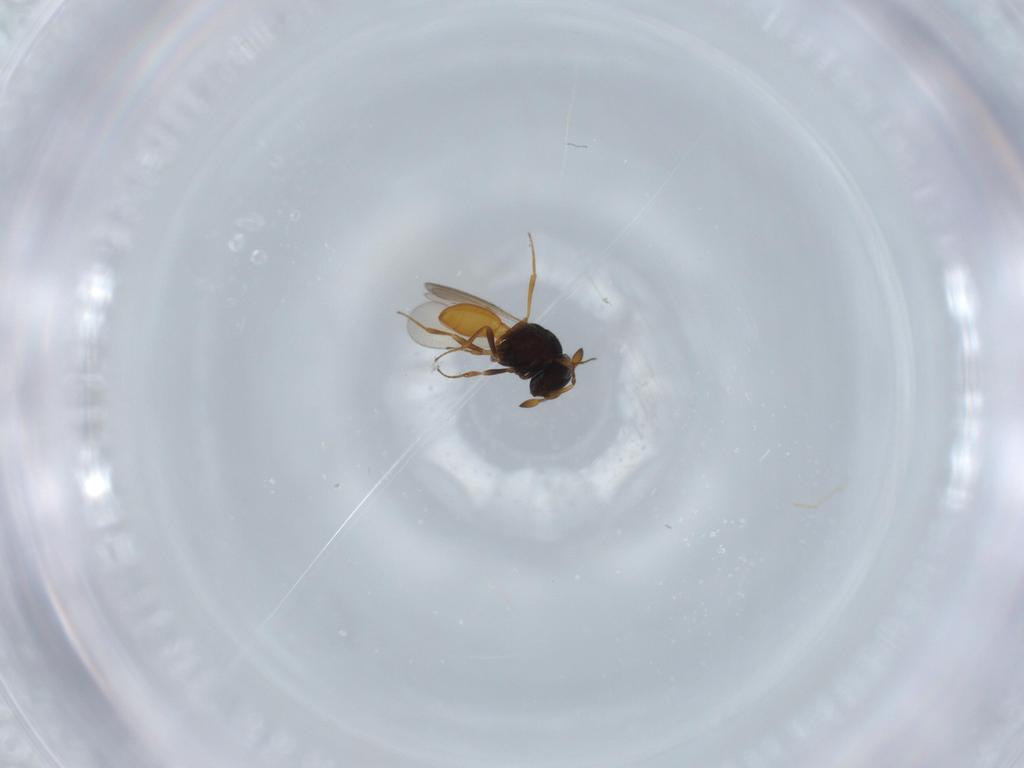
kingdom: Animalia
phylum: Arthropoda
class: Insecta
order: Hymenoptera
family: Scelionidae
